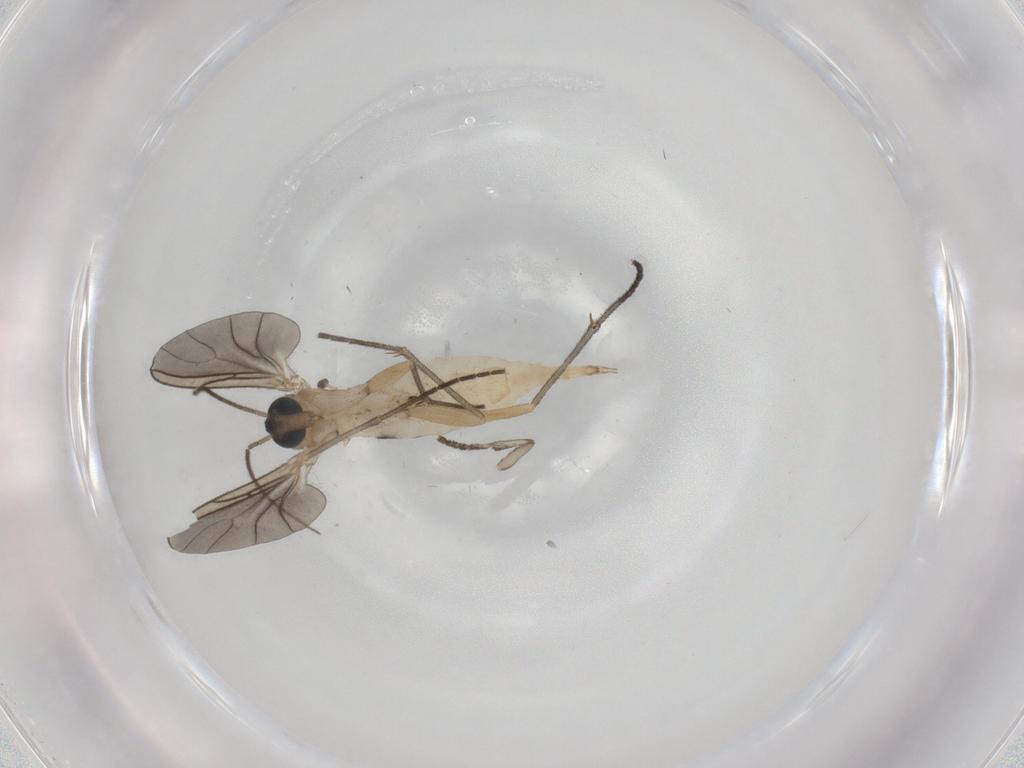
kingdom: Animalia
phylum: Arthropoda
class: Insecta
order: Diptera
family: Sciaridae
